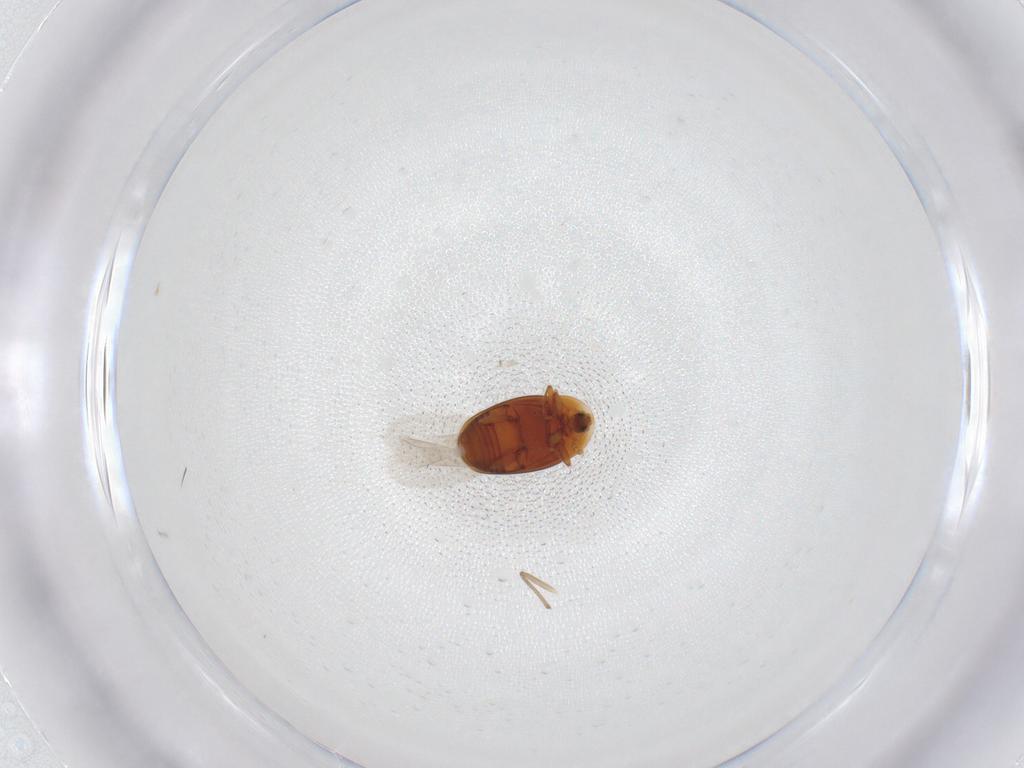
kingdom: Animalia
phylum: Arthropoda
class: Insecta
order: Coleoptera
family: Corylophidae
